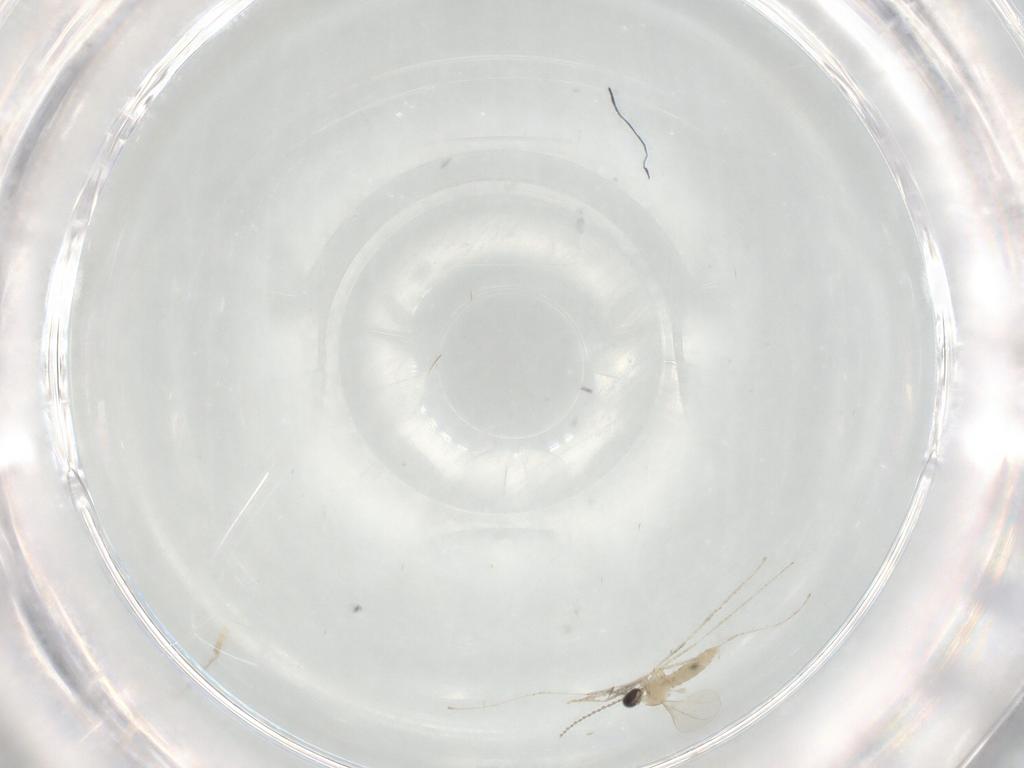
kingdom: Animalia
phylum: Arthropoda
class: Insecta
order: Diptera
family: Cecidomyiidae
